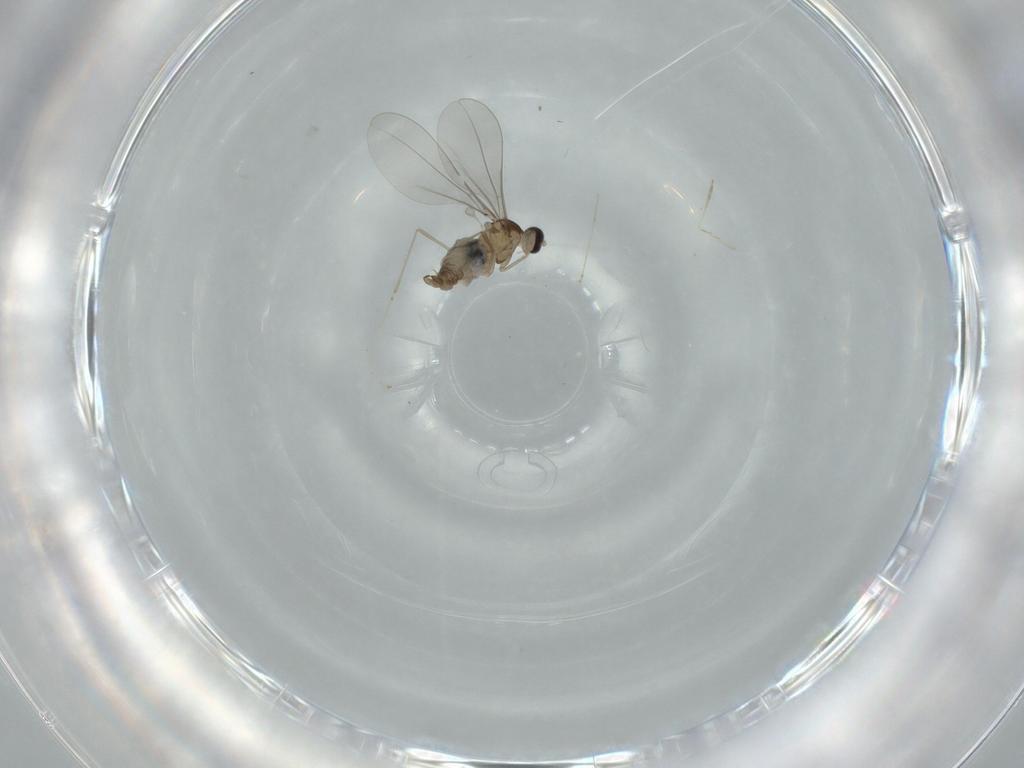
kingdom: Animalia
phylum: Arthropoda
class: Insecta
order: Diptera
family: Cecidomyiidae
